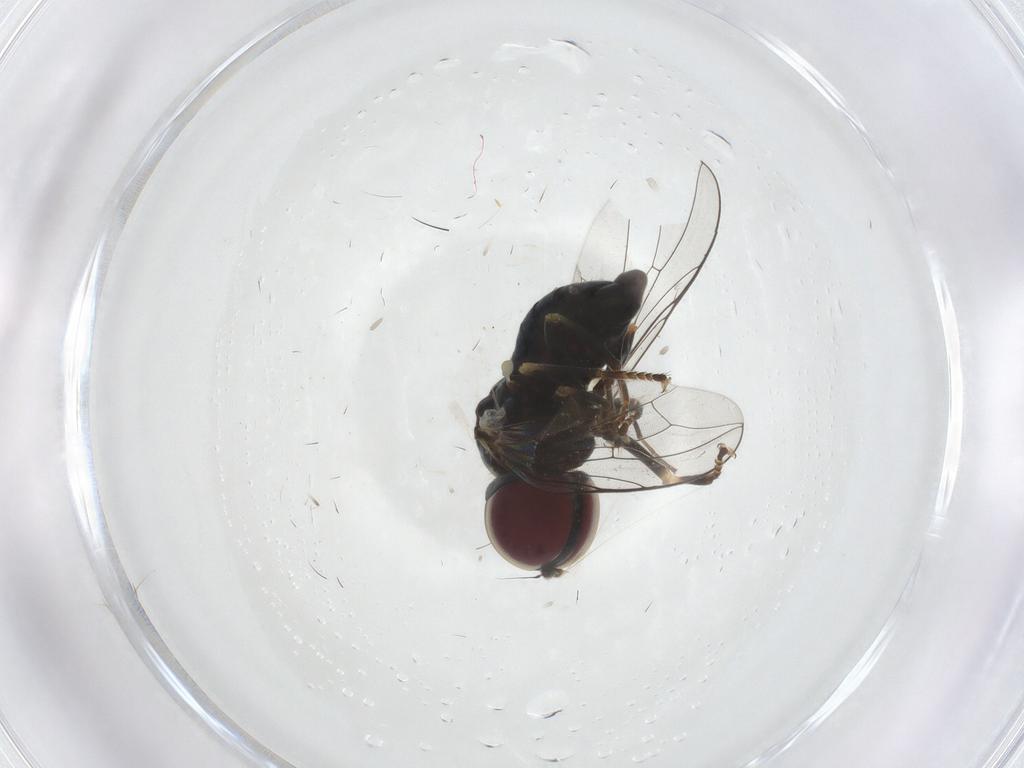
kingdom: Animalia
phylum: Arthropoda
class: Insecta
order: Diptera
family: Pipunculidae
